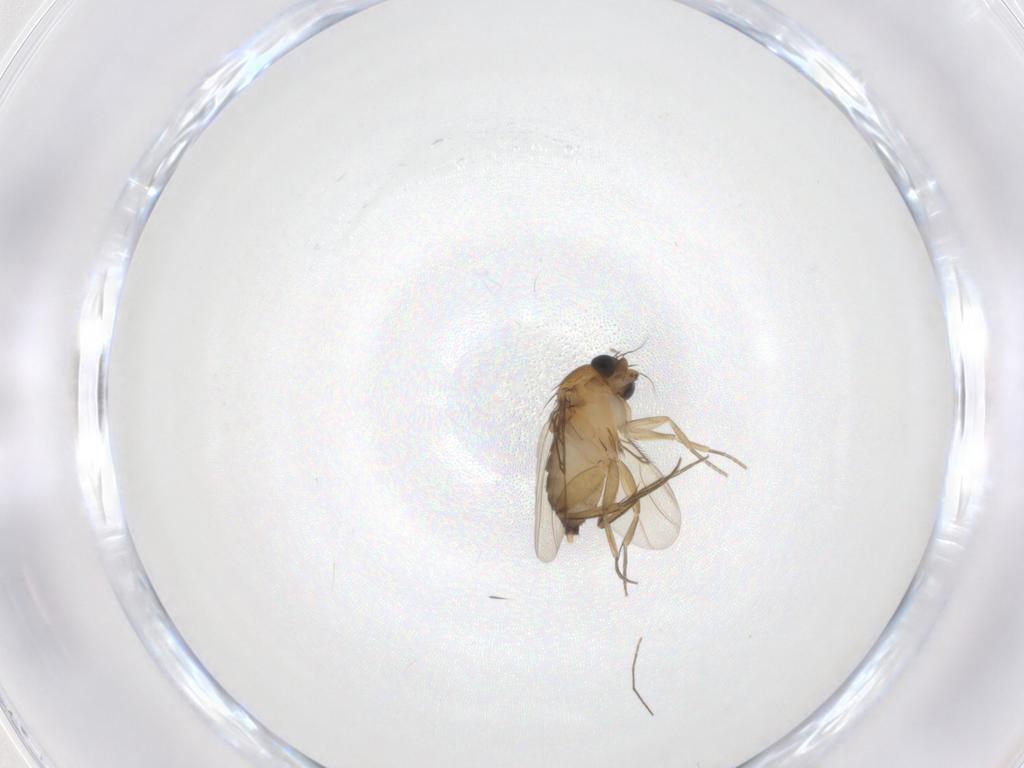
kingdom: Animalia
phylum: Arthropoda
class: Insecta
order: Diptera
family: Phoridae
